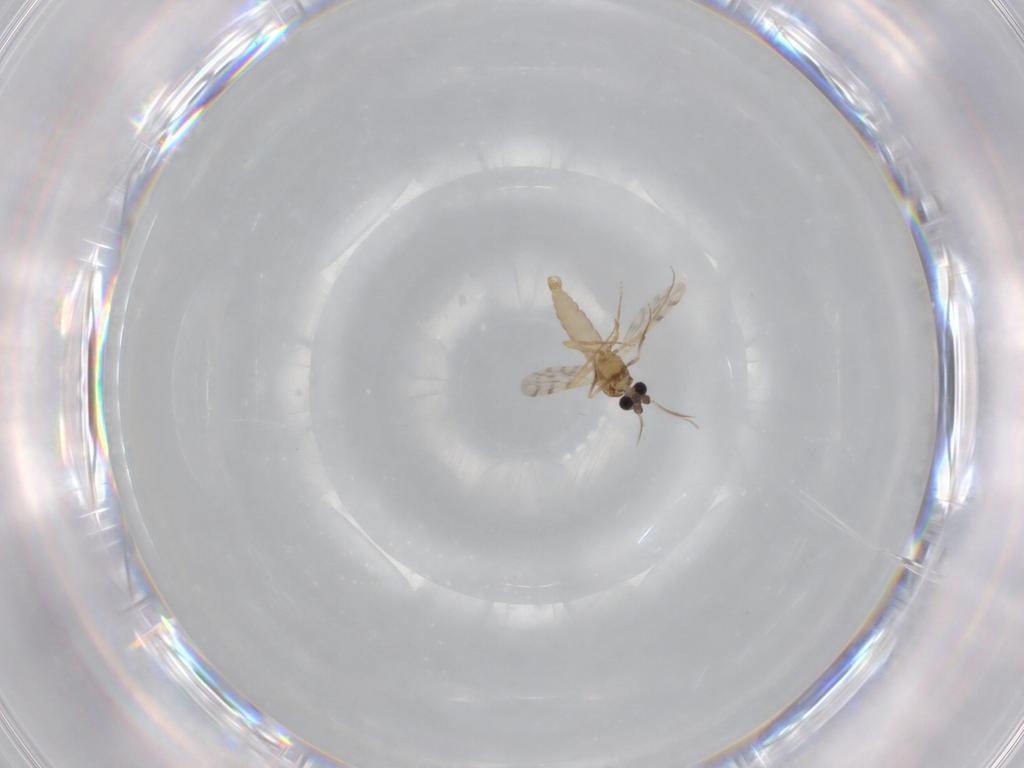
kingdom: Animalia
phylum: Arthropoda
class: Insecta
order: Diptera
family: Ceratopogonidae
